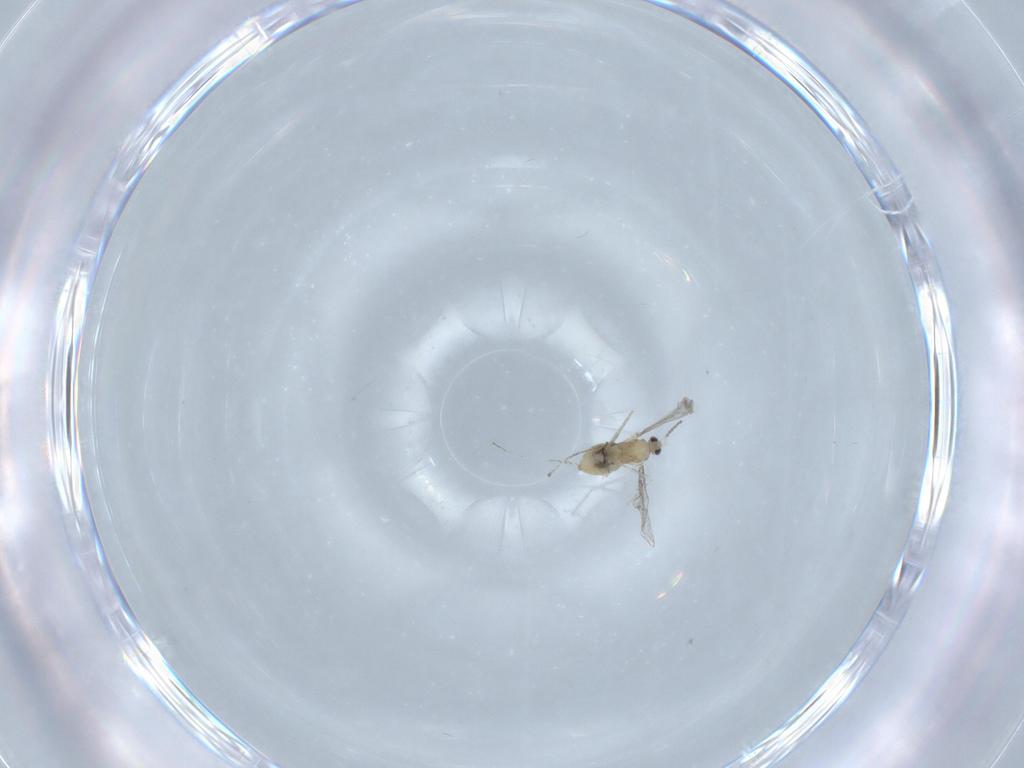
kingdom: Animalia
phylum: Arthropoda
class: Insecta
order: Diptera
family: Cecidomyiidae
